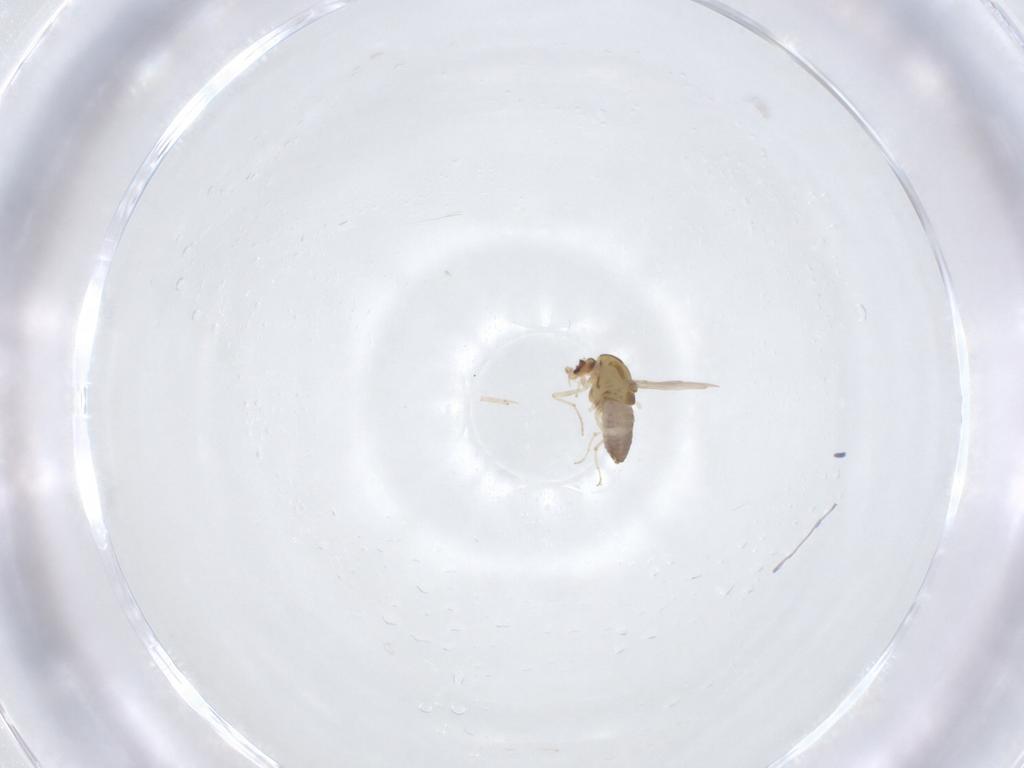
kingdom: Animalia
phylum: Arthropoda
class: Insecta
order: Diptera
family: Chironomidae
